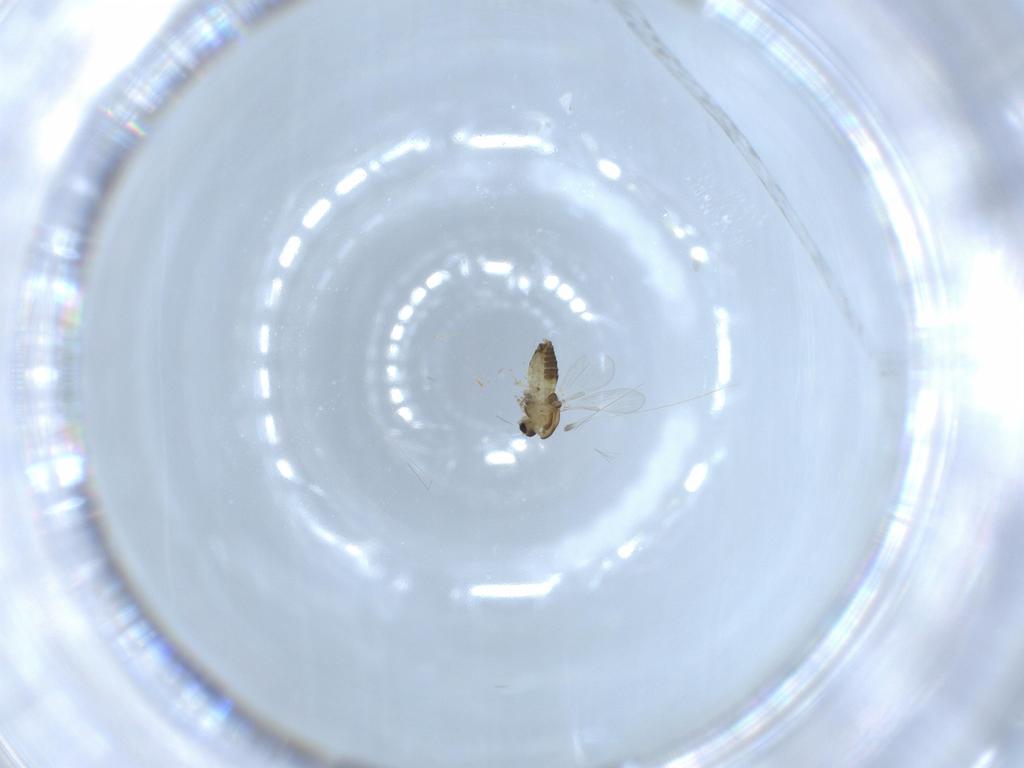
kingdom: Animalia
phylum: Arthropoda
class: Insecta
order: Diptera
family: Chironomidae
